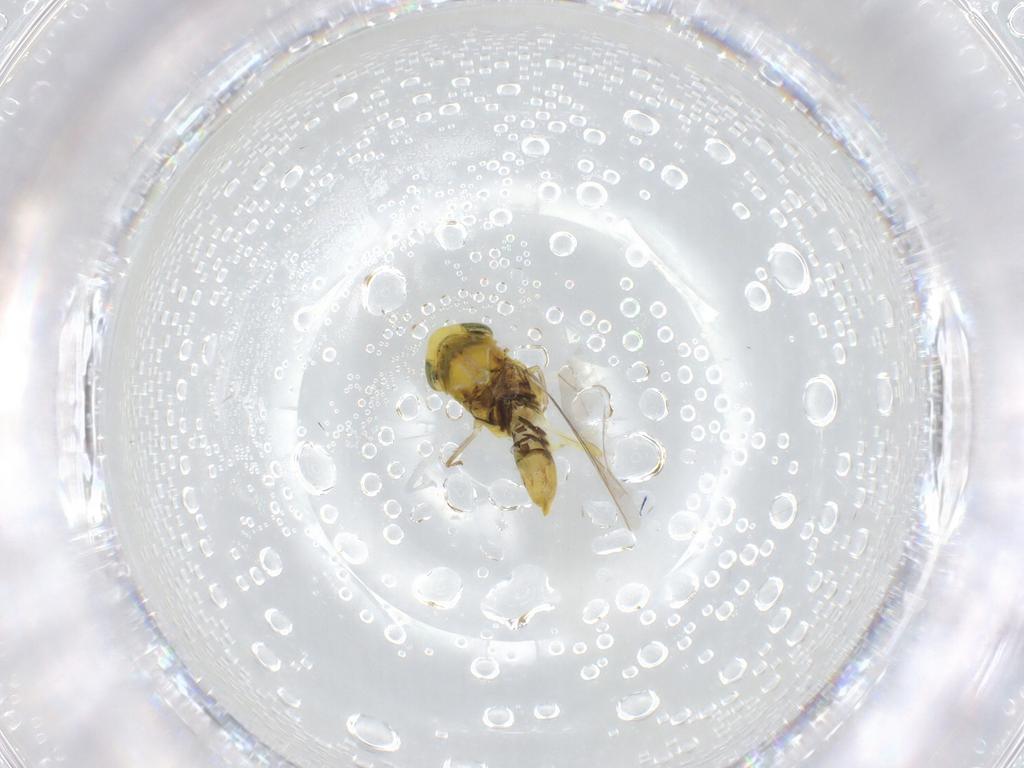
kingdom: Animalia
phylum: Arthropoda
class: Insecta
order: Hemiptera
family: Cicadellidae
